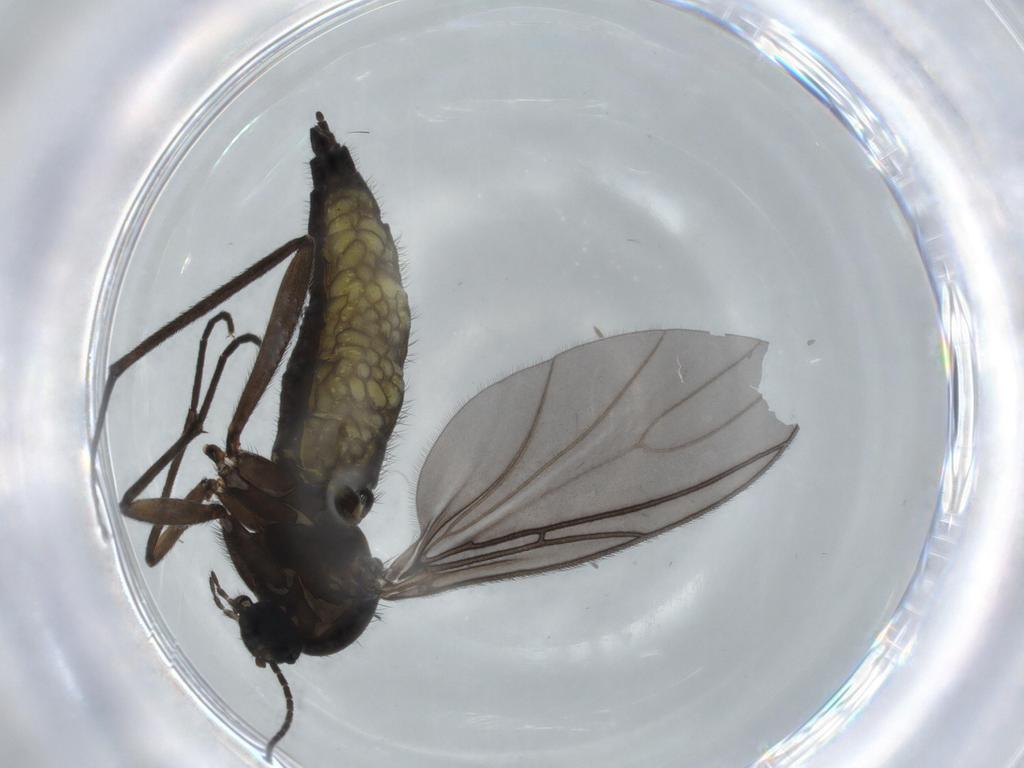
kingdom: Animalia
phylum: Arthropoda
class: Insecta
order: Diptera
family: Sciaridae
